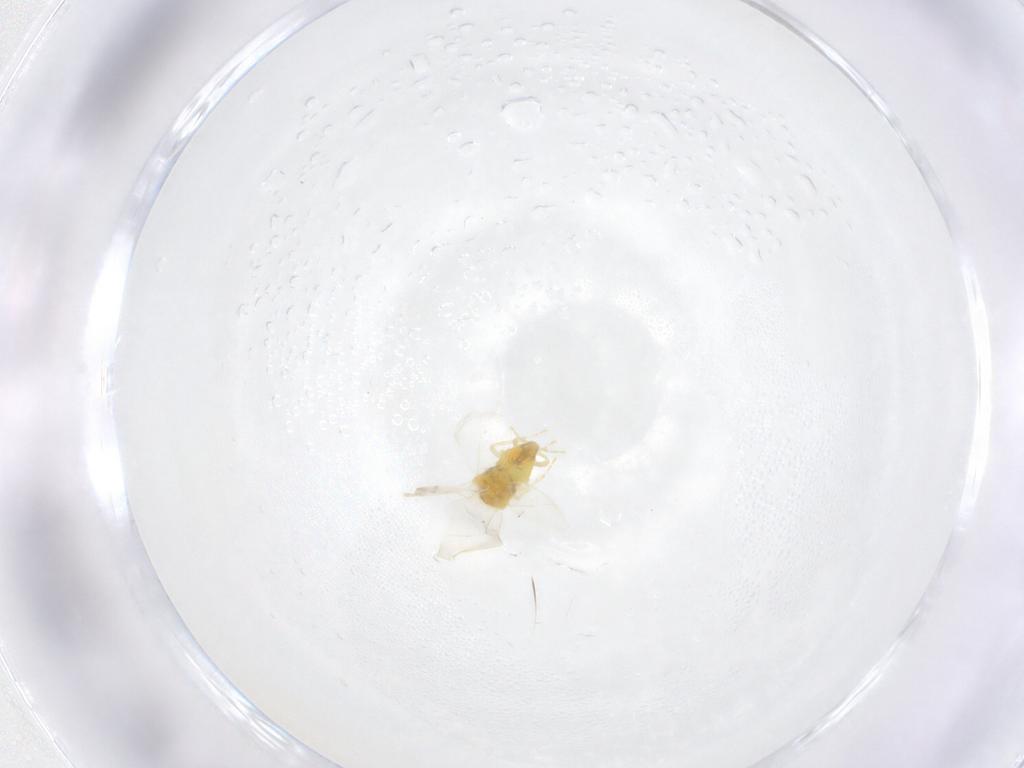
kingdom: Animalia
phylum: Arthropoda
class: Insecta
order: Hemiptera
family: Aleyrodidae
